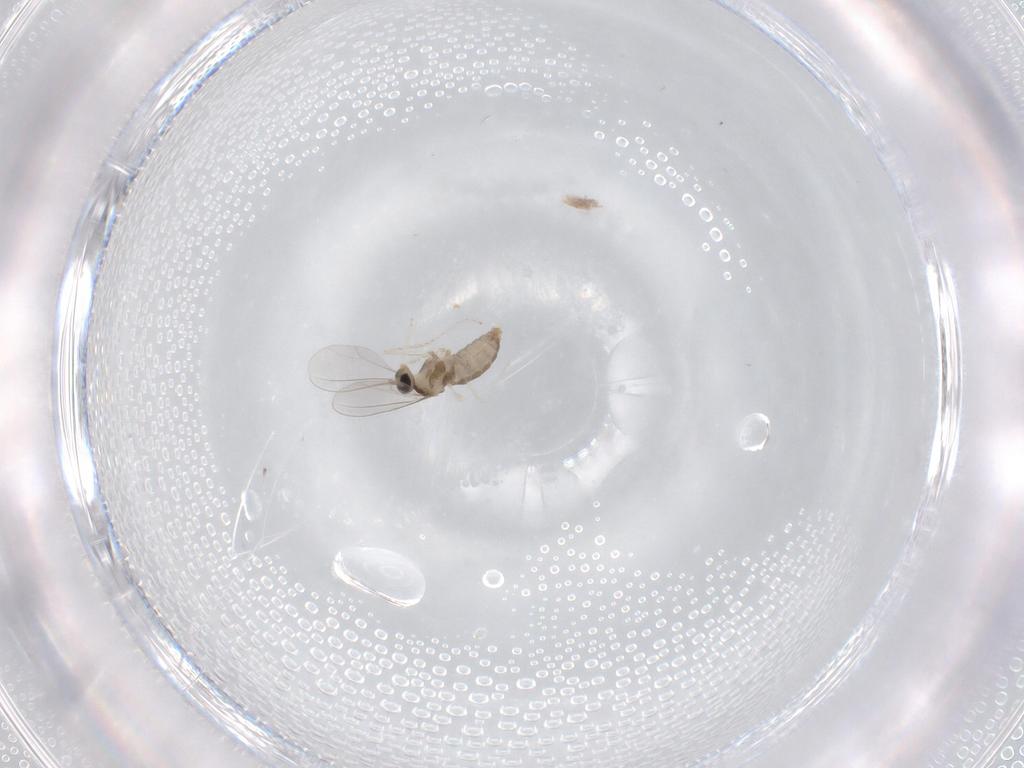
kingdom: Animalia
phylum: Arthropoda
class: Insecta
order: Diptera
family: Cecidomyiidae
